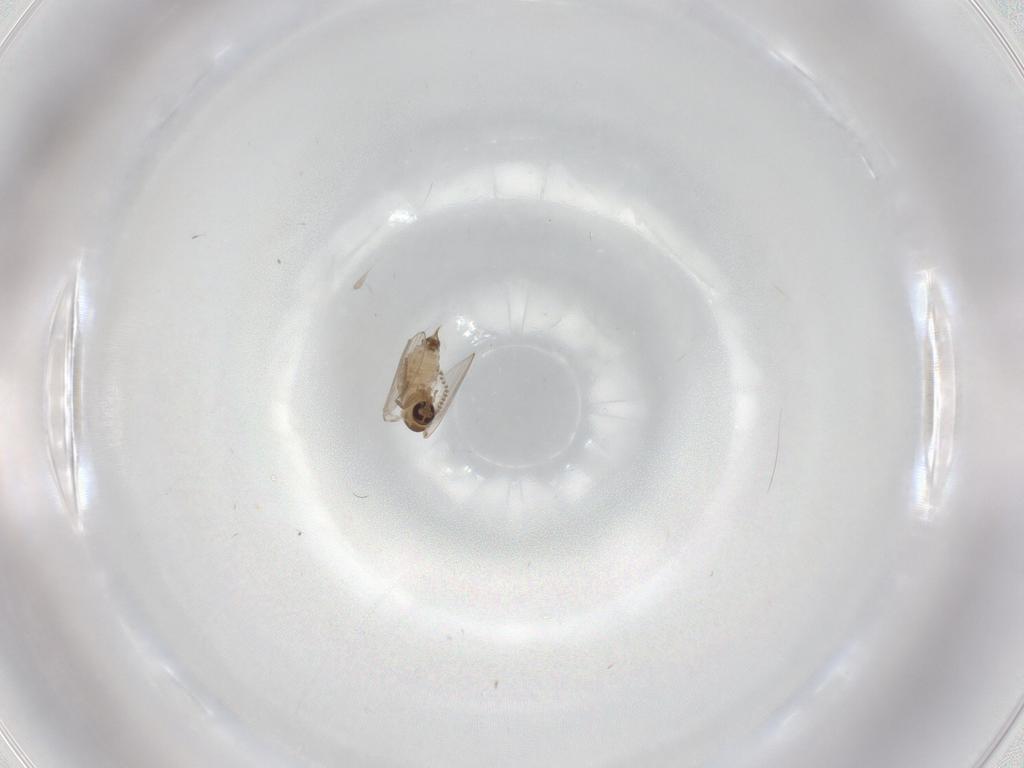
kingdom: Animalia
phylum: Arthropoda
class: Insecta
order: Diptera
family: Psychodidae
